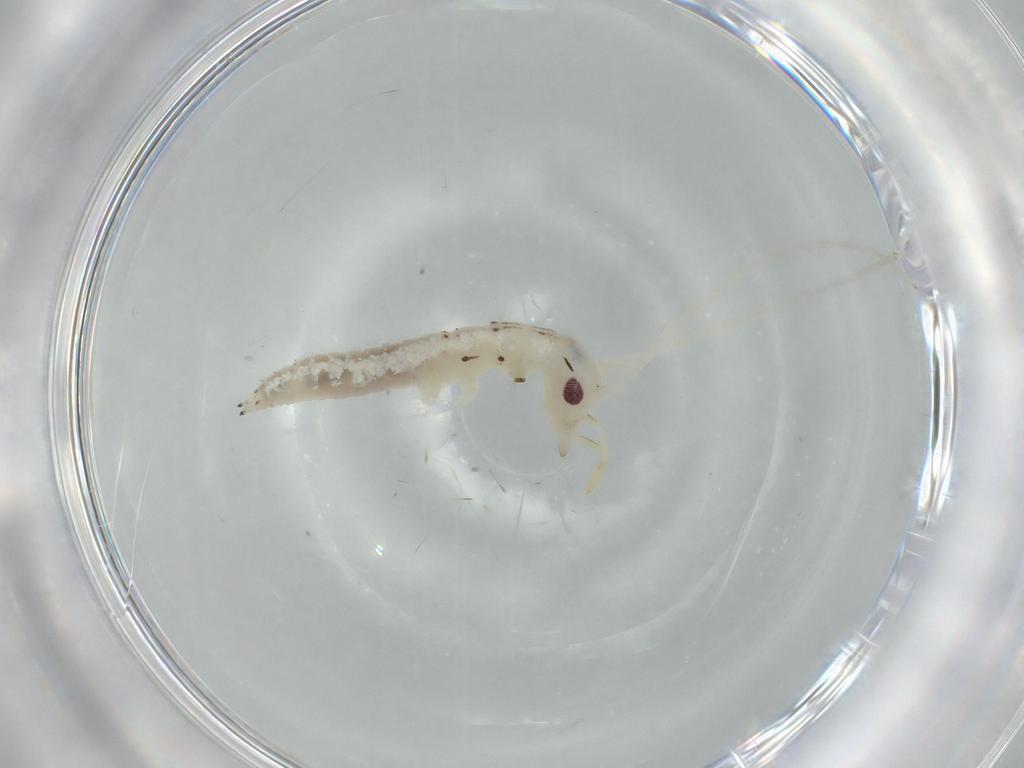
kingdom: Animalia
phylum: Arthropoda
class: Insecta
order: Orthoptera
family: Oecanthidae
